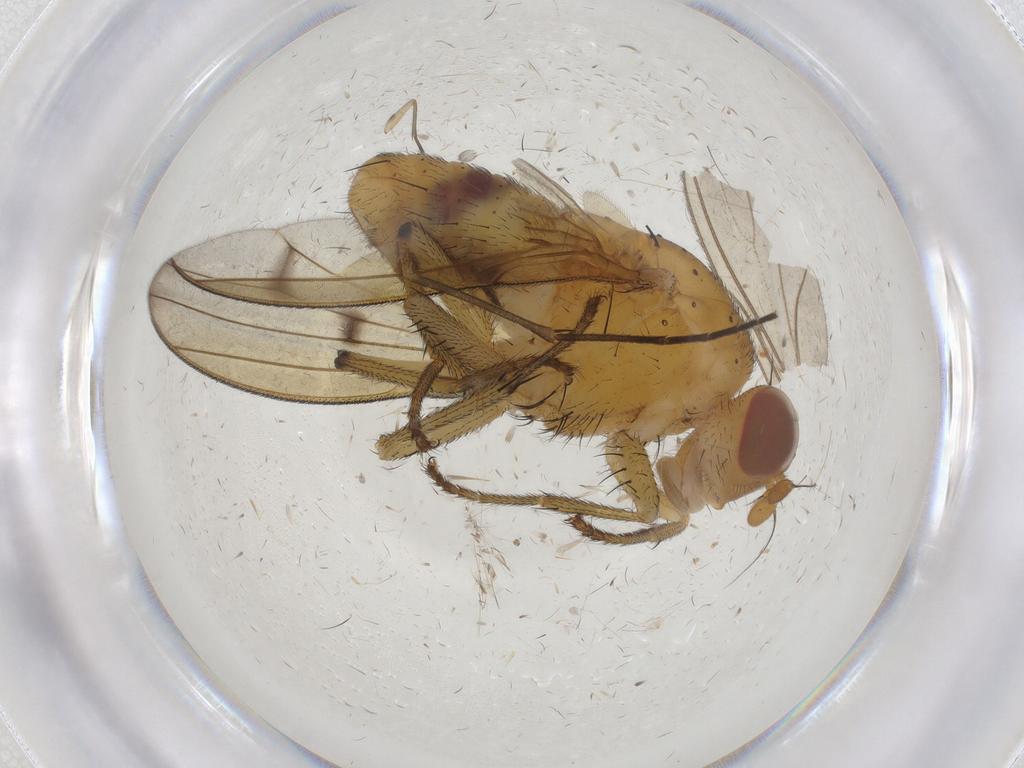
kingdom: Animalia
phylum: Arthropoda
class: Insecta
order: Diptera
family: Sciaridae
